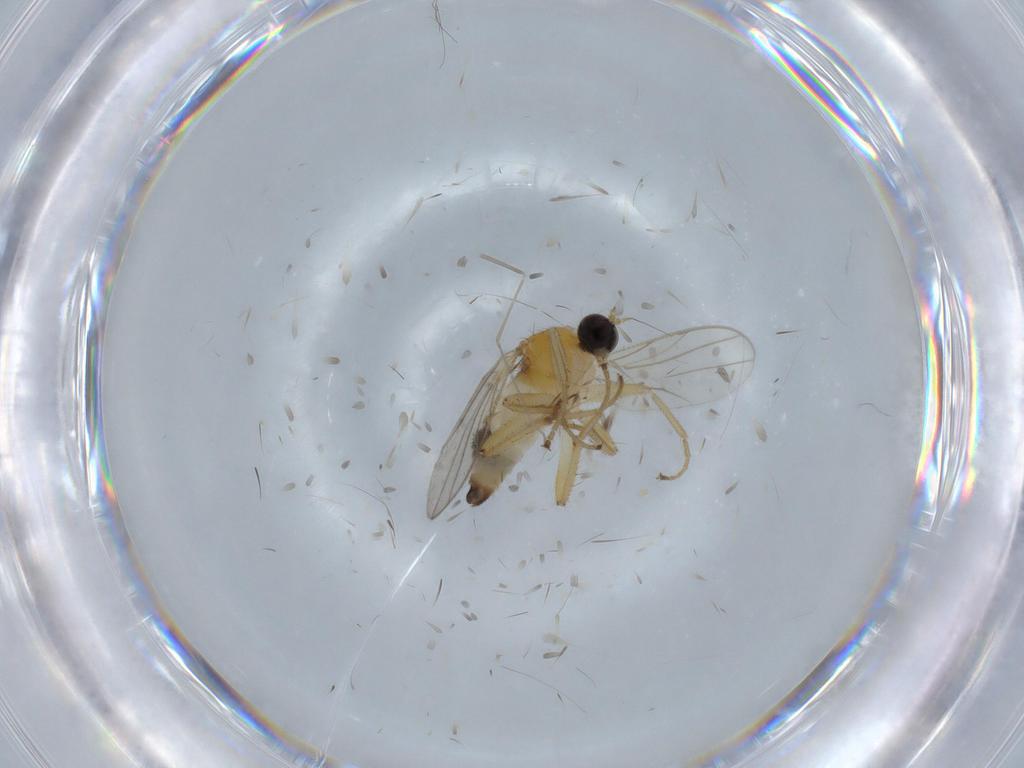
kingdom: Animalia
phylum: Arthropoda
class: Insecta
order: Diptera
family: Hybotidae
